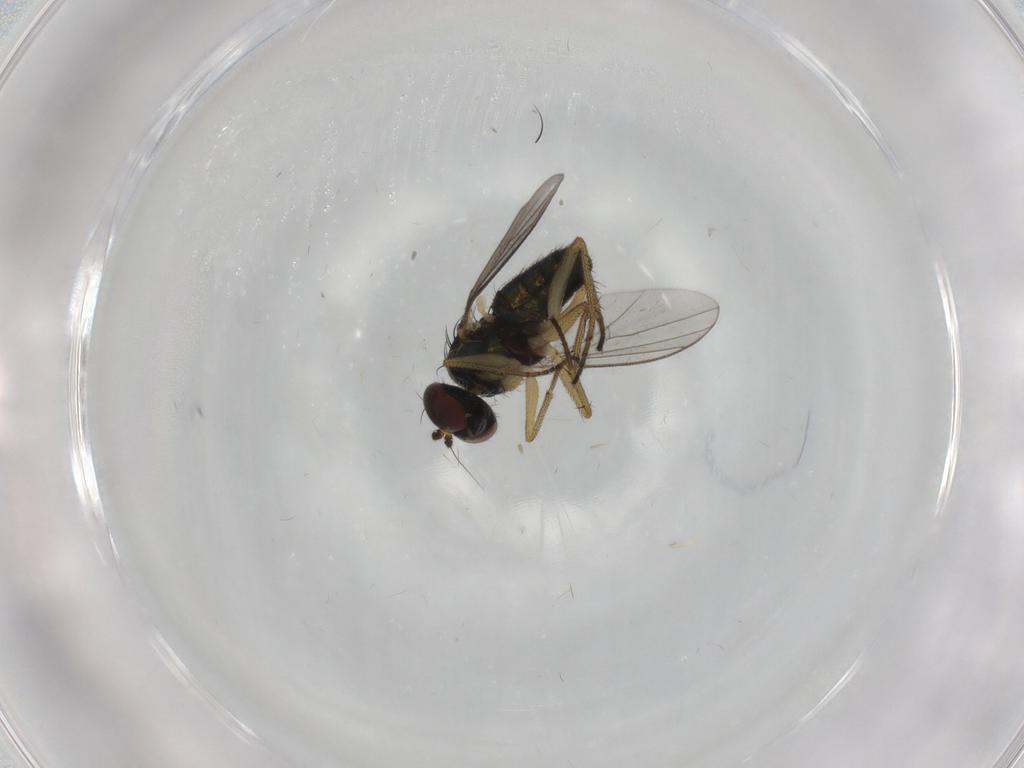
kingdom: Animalia
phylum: Arthropoda
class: Insecta
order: Diptera
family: Dolichopodidae
